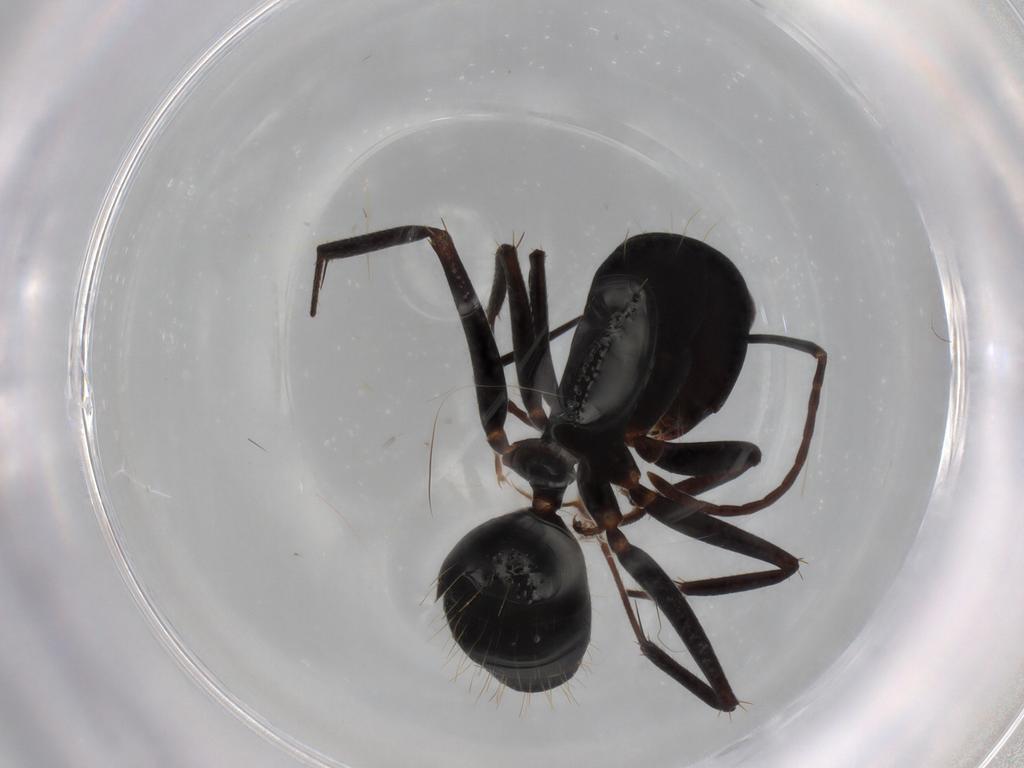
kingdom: Animalia
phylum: Arthropoda
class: Insecta
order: Hymenoptera
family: Formicidae
